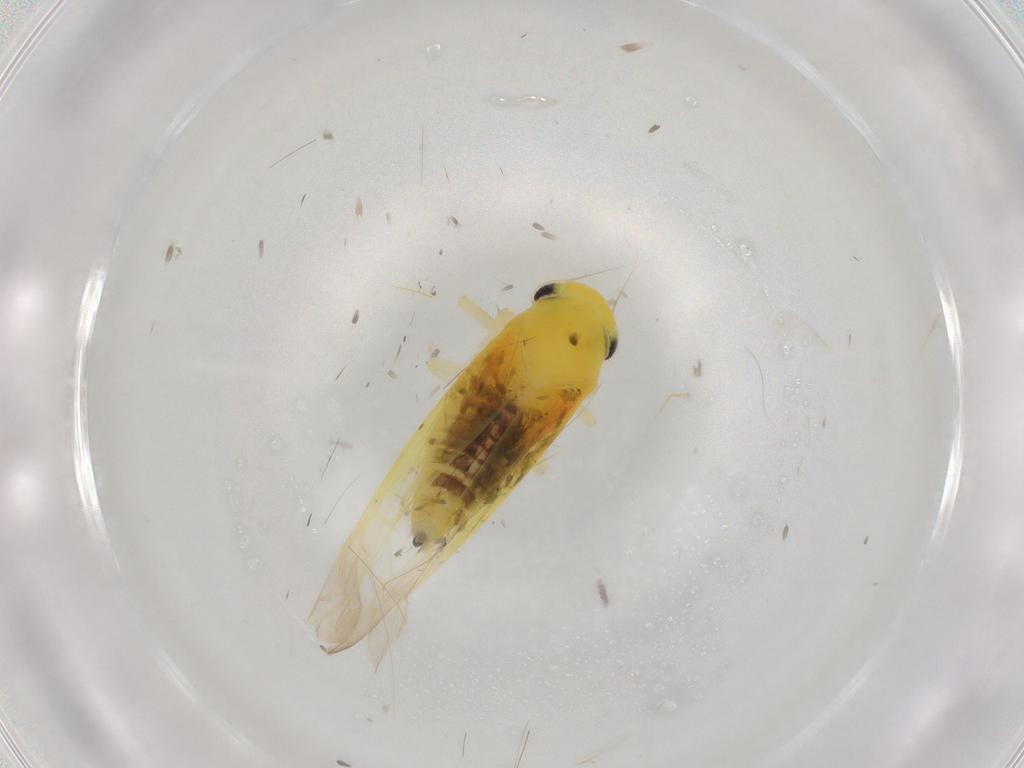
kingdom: Animalia
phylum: Arthropoda
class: Insecta
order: Hemiptera
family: Cicadellidae
